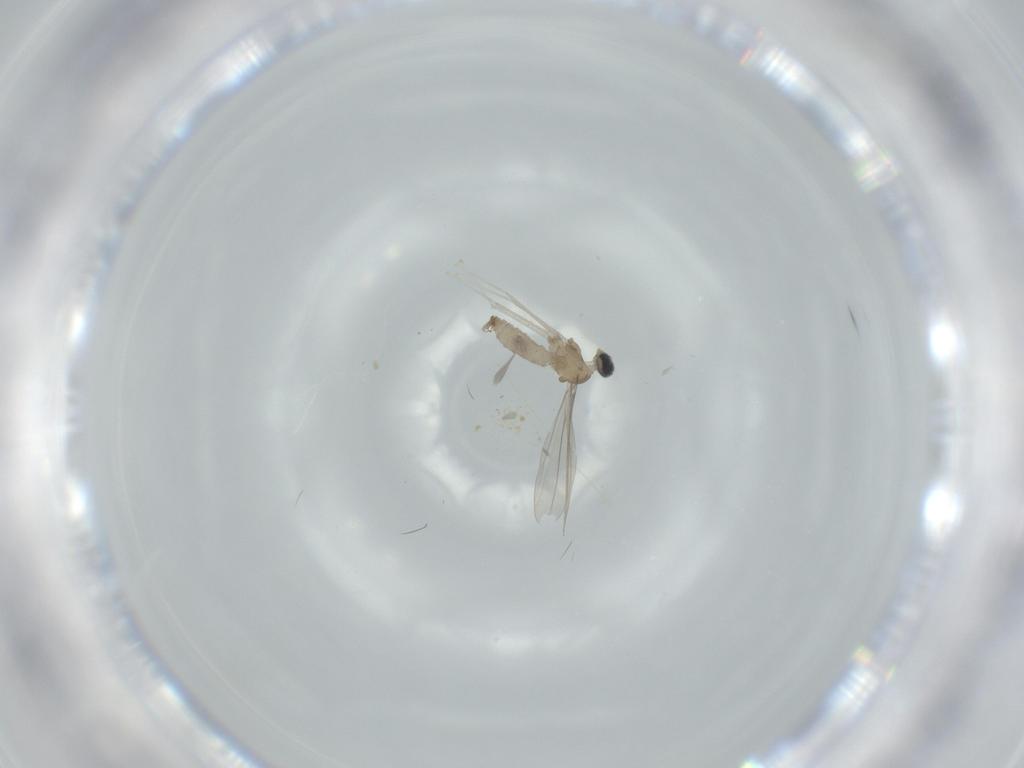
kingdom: Animalia
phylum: Arthropoda
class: Insecta
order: Diptera
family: Cecidomyiidae
